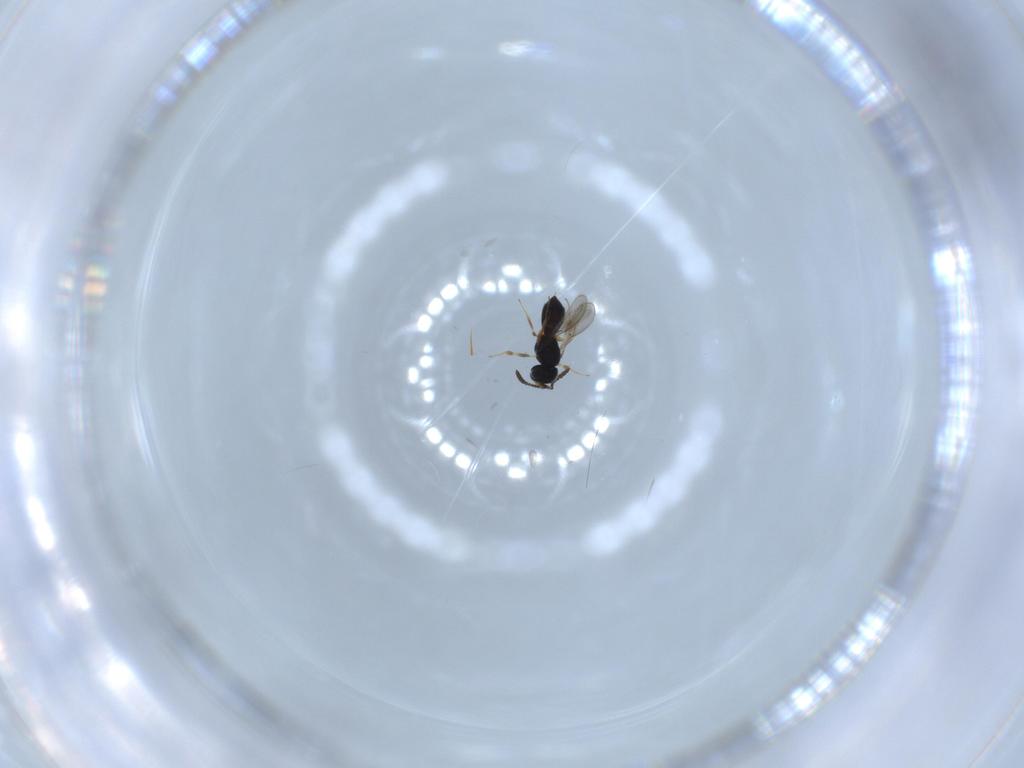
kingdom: Animalia
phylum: Arthropoda
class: Insecta
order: Hymenoptera
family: Scelionidae
